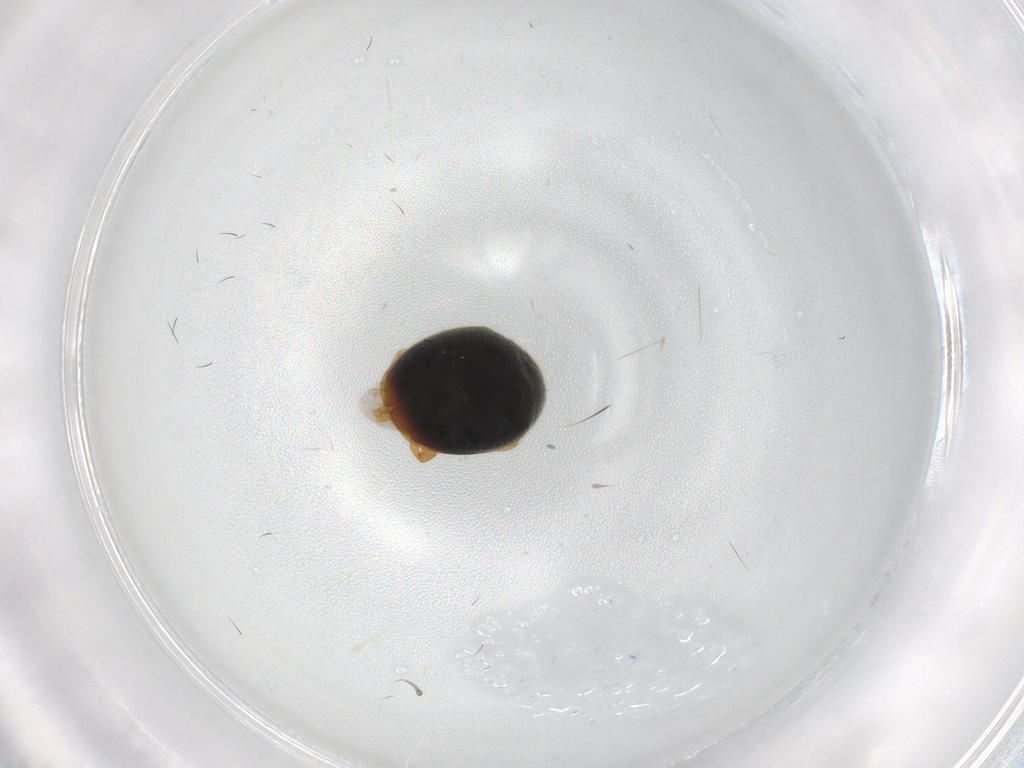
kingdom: Animalia
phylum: Arthropoda
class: Insecta
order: Coleoptera
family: Coccinellidae
